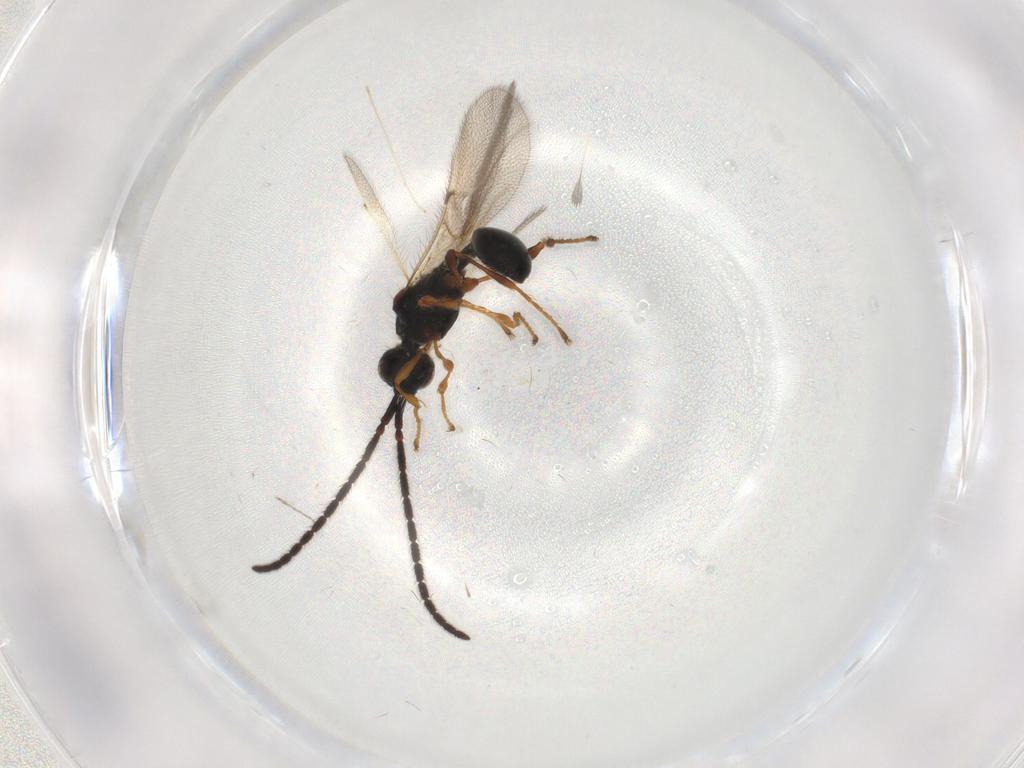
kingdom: Animalia
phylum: Arthropoda
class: Insecta
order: Hymenoptera
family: Diapriidae
